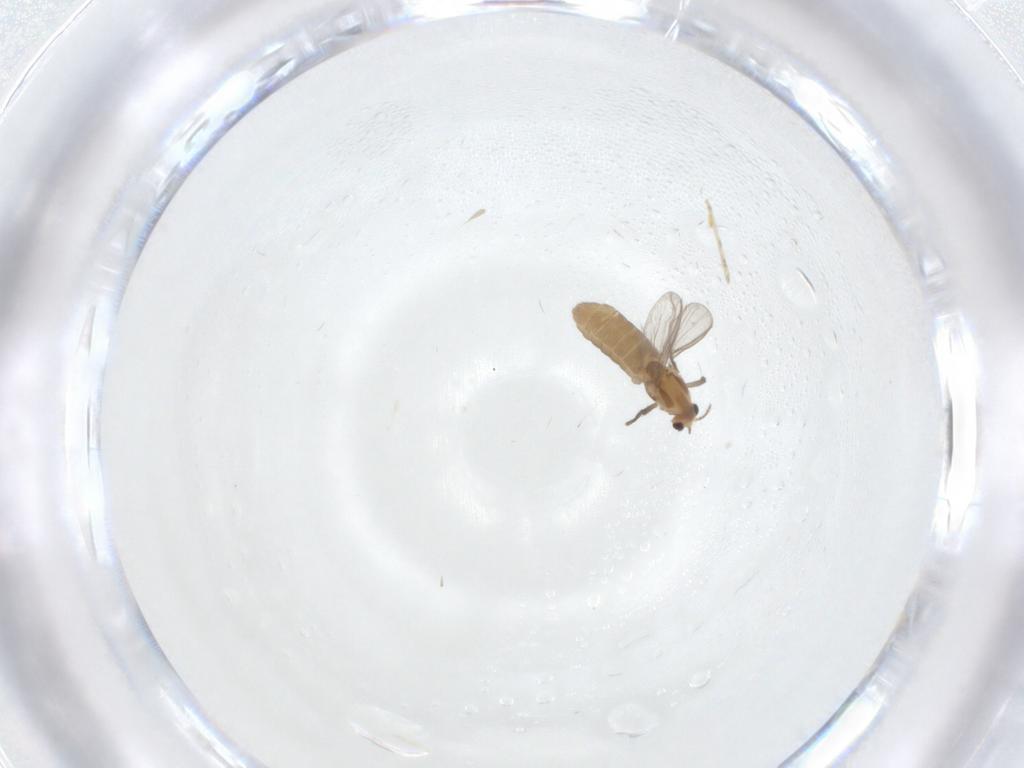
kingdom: Animalia
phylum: Arthropoda
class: Insecta
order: Diptera
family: Chironomidae
